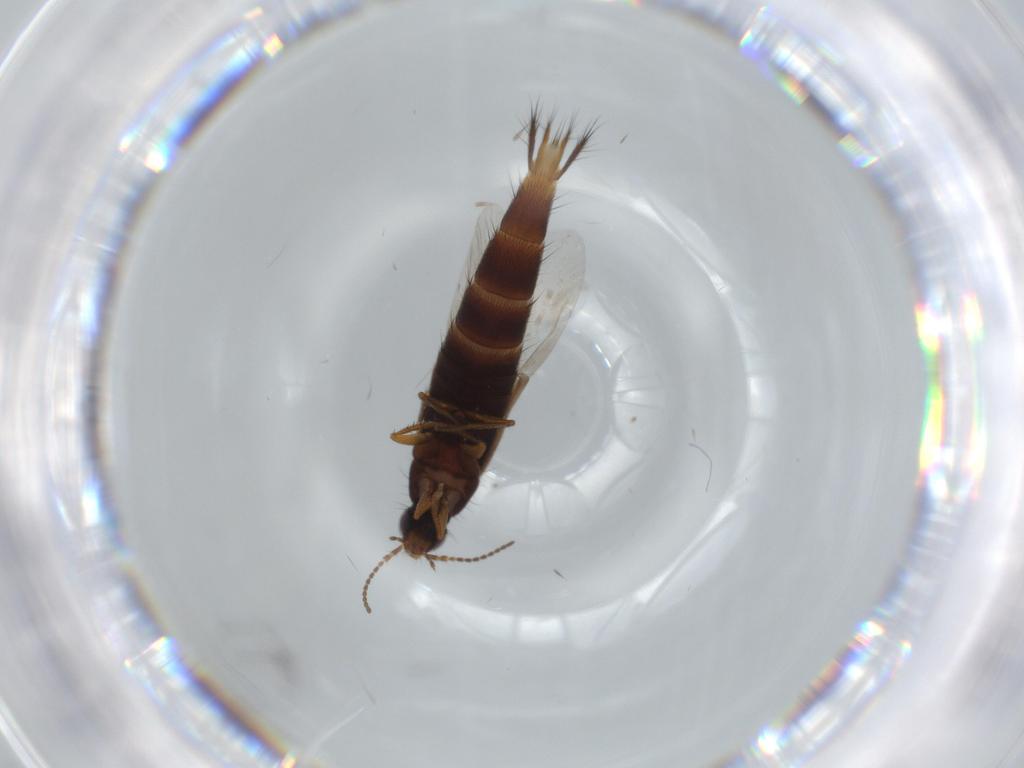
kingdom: Animalia
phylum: Arthropoda
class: Insecta
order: Coleoptera
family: Coccinellidae
